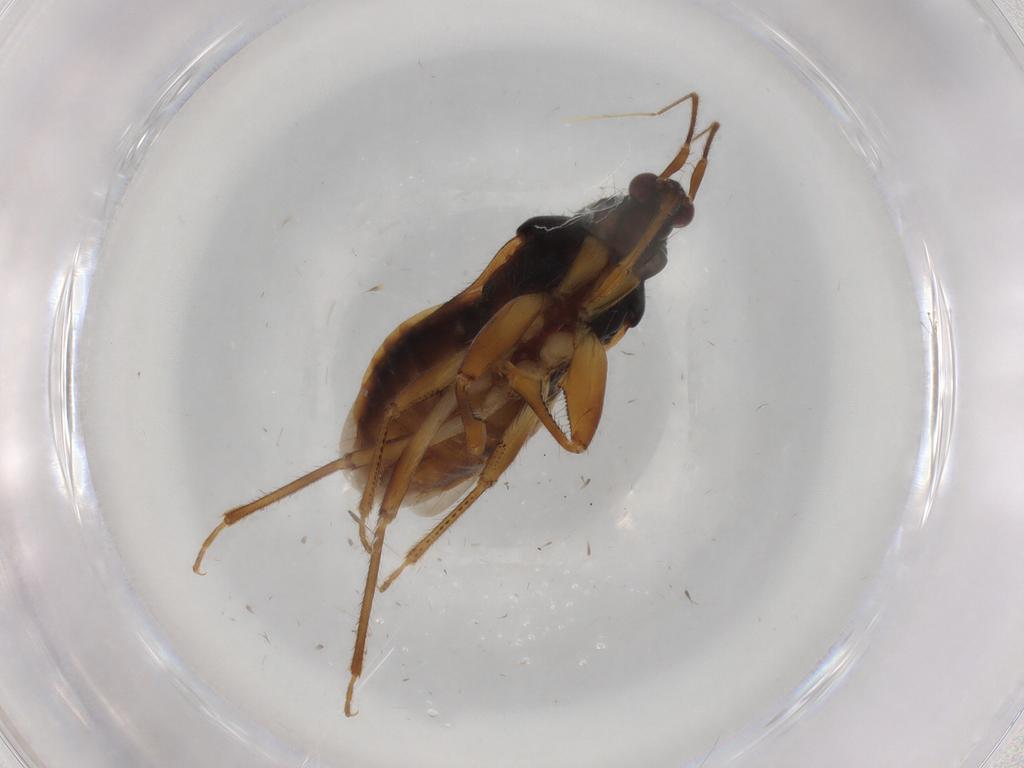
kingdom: Animalia
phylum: Arthropoda
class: Insecta
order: Hemiptera
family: Nabidae
